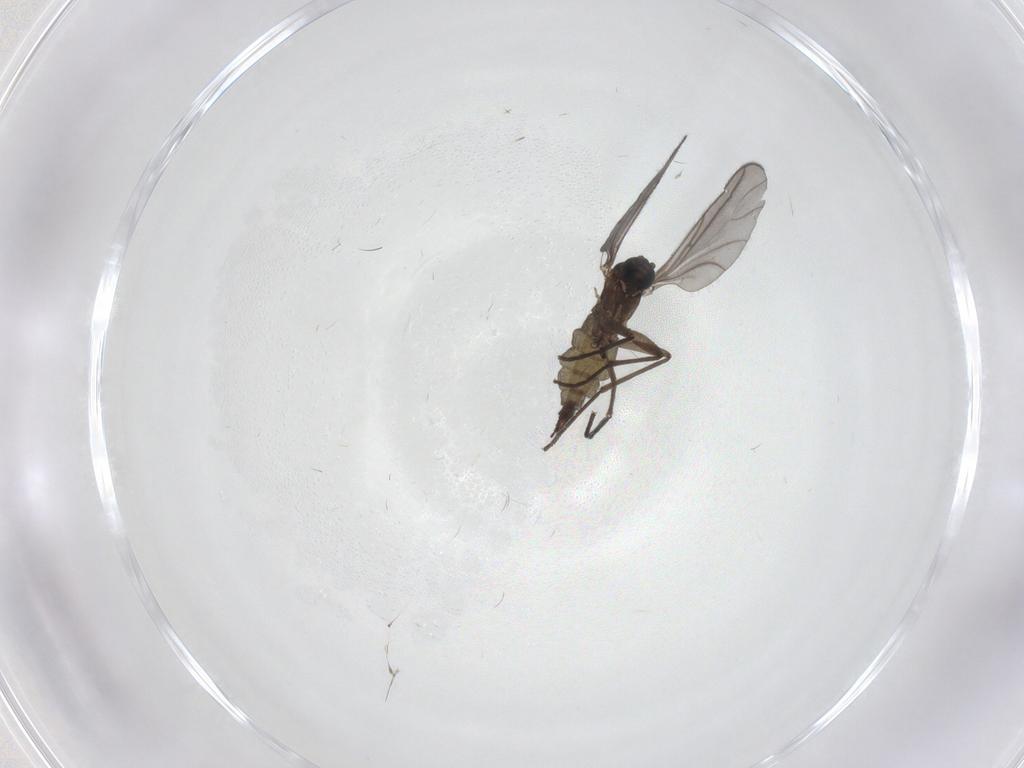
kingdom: Animalia
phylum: Arthropoda
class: Insecta
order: Diptera
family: Sciaridae
